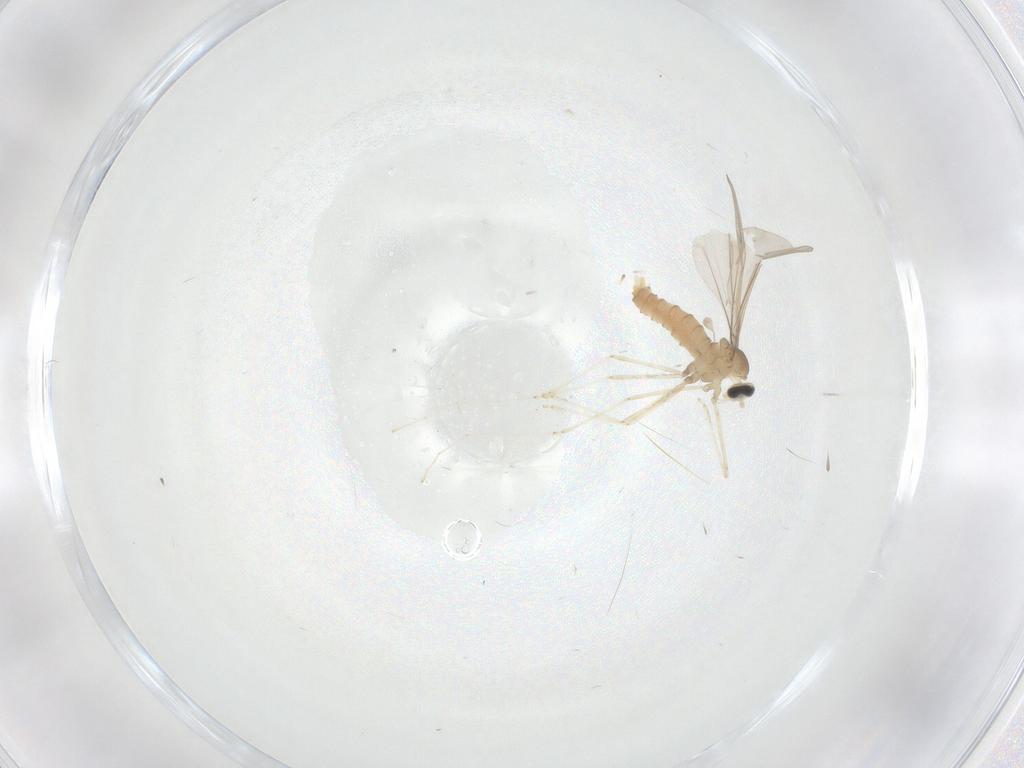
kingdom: Animalia
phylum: Arthropoda
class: Insecta
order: Diptera
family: Cecidomyiidae
